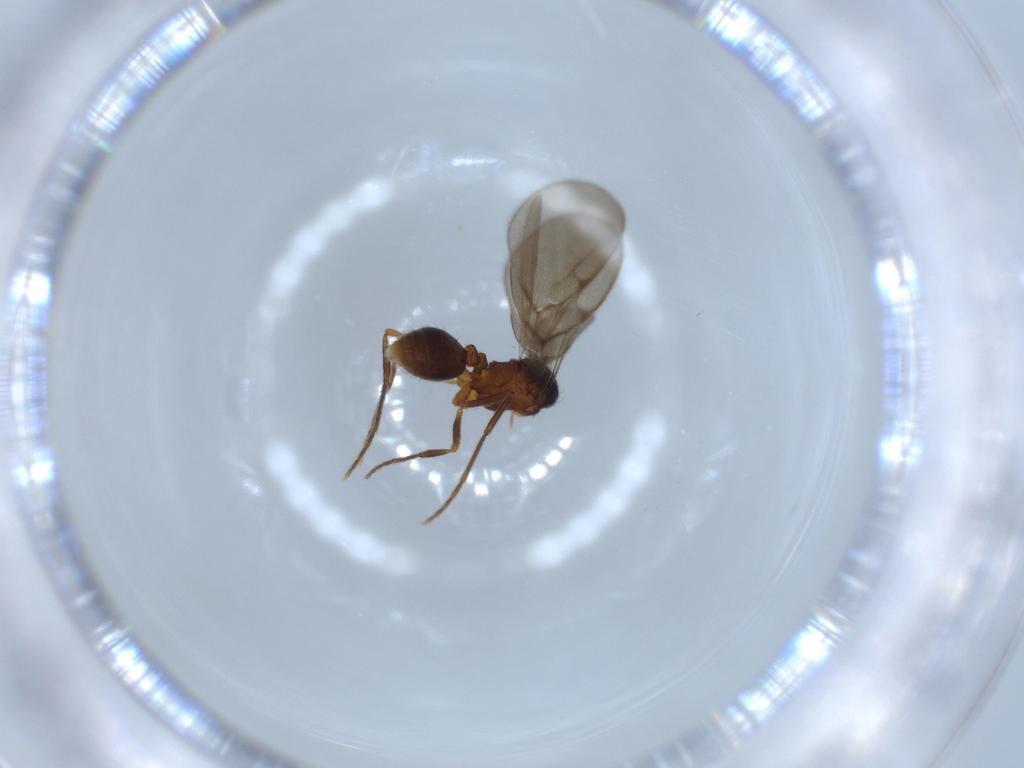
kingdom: Animalia
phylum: Arthropoda
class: Insecta
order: Hymenoptera
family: Formicidae
